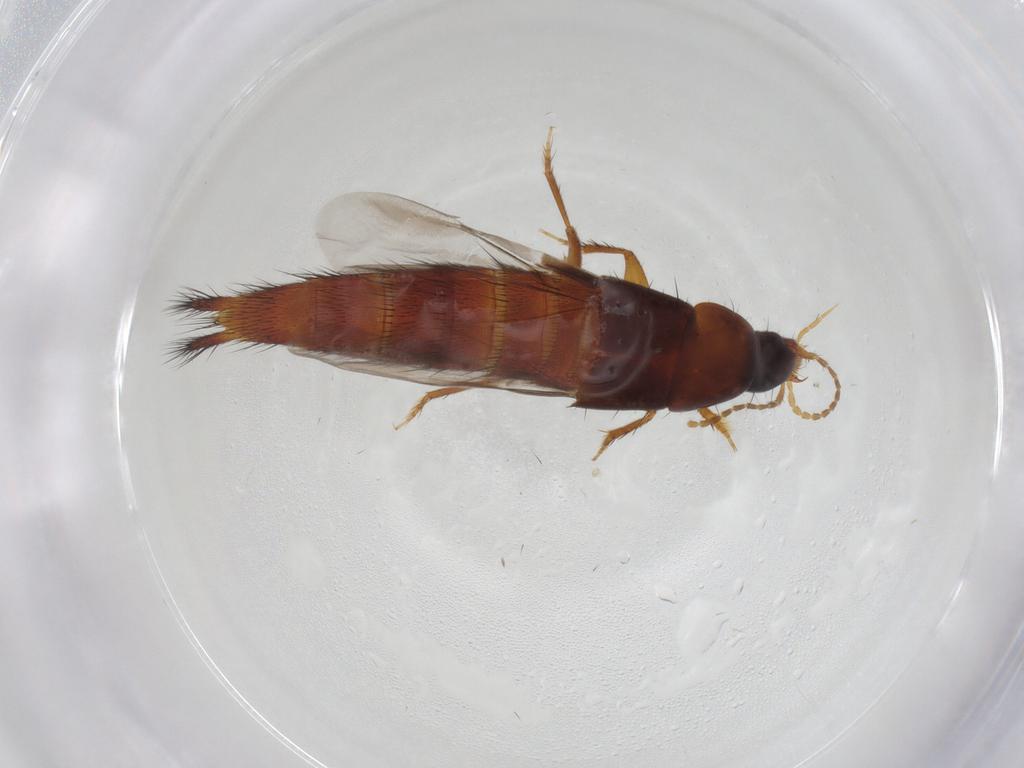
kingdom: Animalia
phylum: Arthropoda
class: Insecta
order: Coleoptera
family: Staphylinidae
